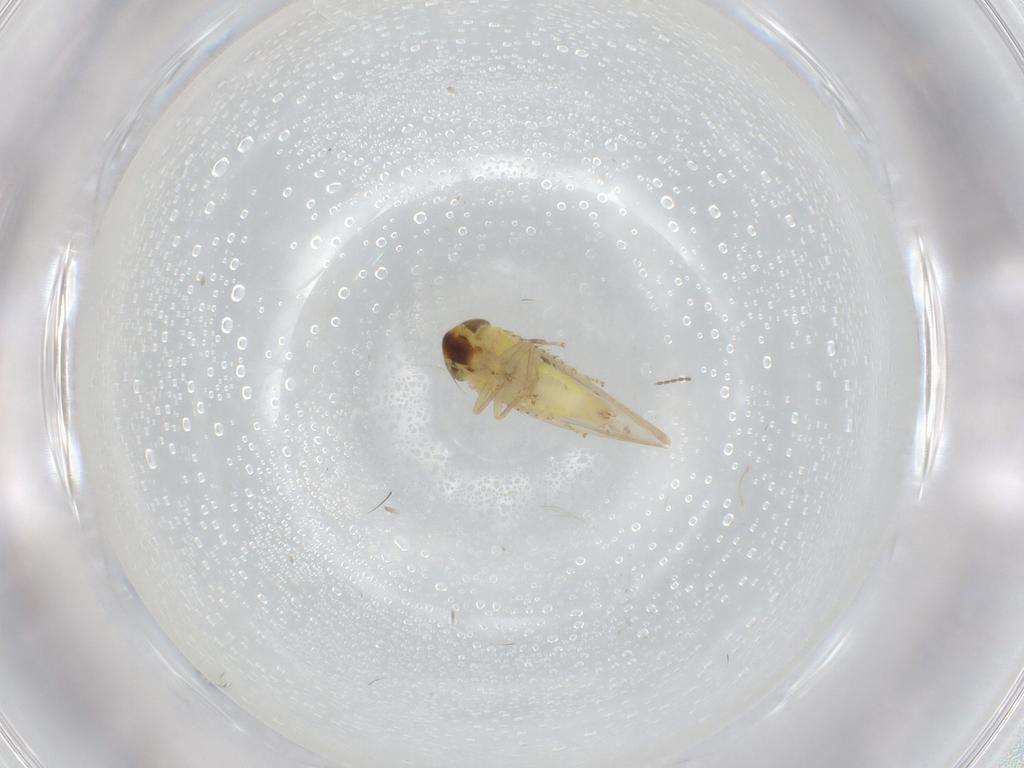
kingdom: Animalia
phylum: Arthropoda
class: Insecta
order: Hemiptera
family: Cicadellidae
